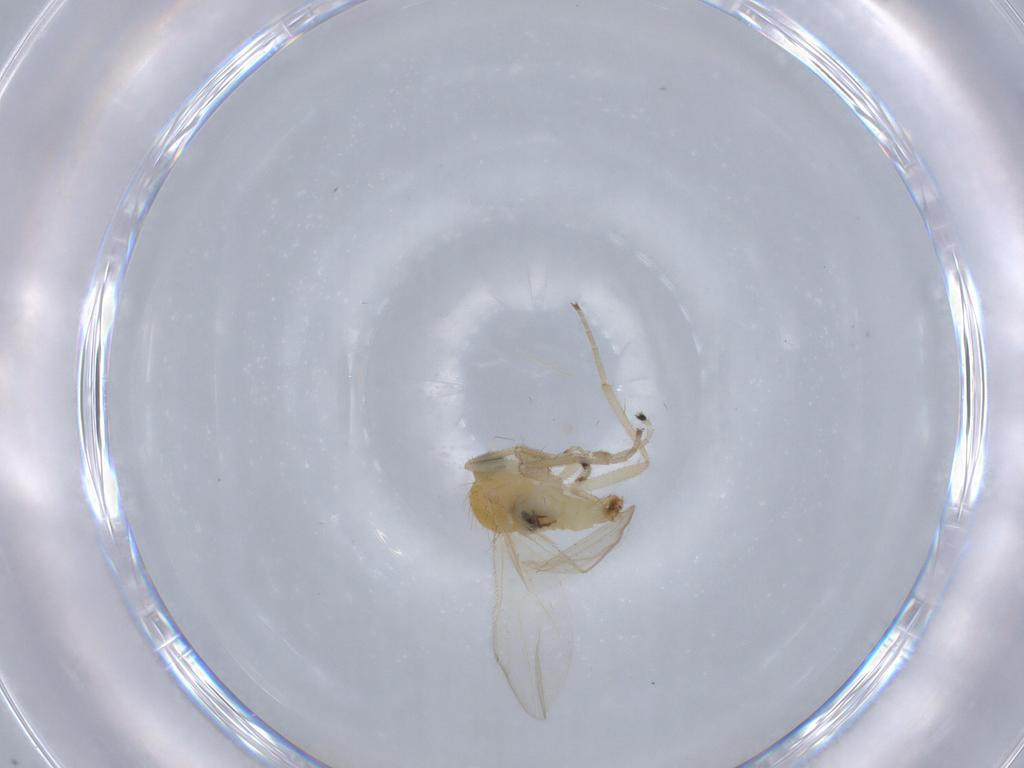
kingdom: Animalia
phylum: Arthropoda
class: Insecta
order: Diptera
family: Hybotidae
